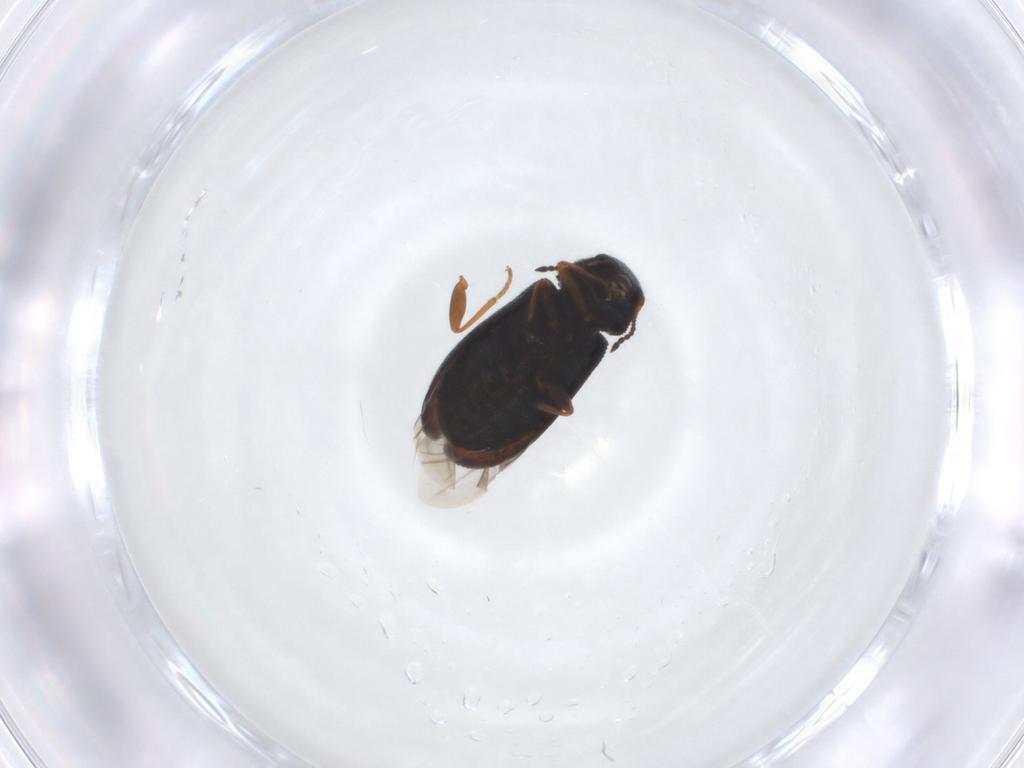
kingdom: Animalia
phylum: Arthropoda
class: Insecta
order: Coleoptera
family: Melyridae
